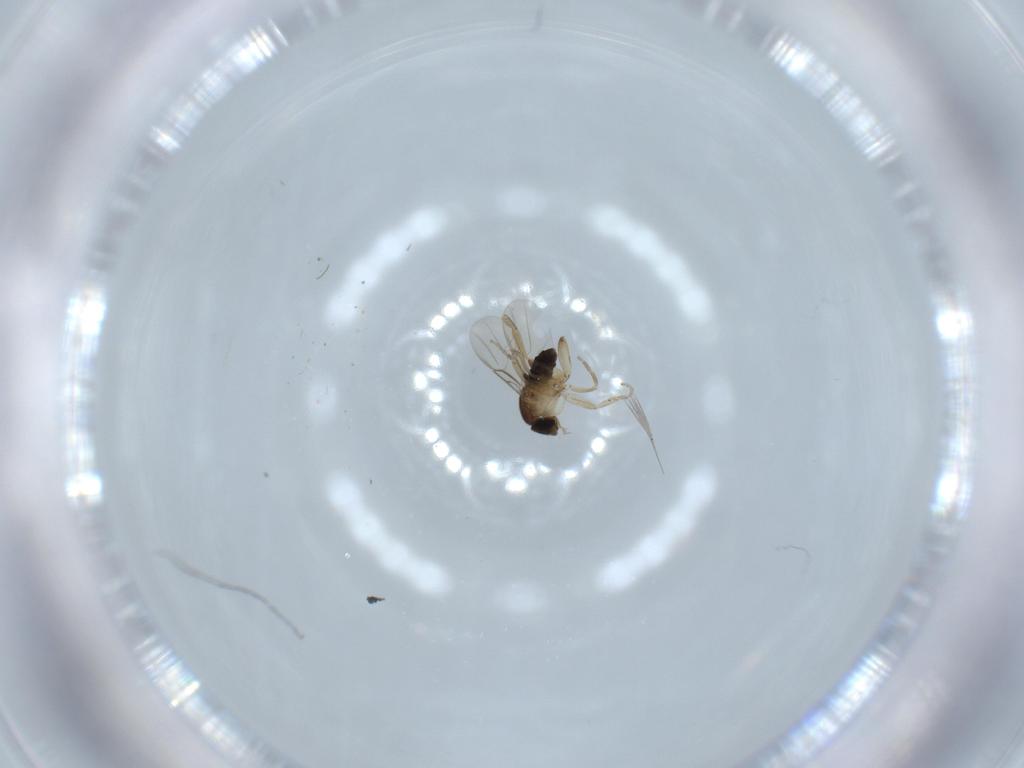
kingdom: Animalia
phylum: Arthropoda
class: Insecta
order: Diptera
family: Phoridae
